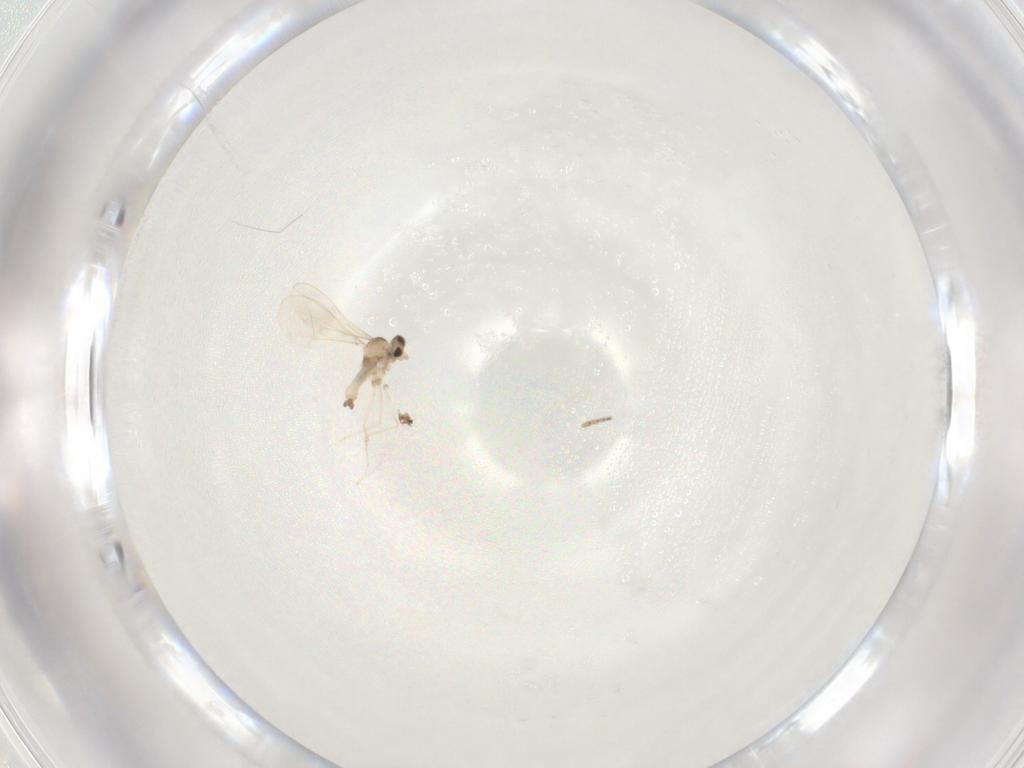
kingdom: Animalia
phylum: Arthropoda
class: Insecta
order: Diptera
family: Cecidomyiidae
